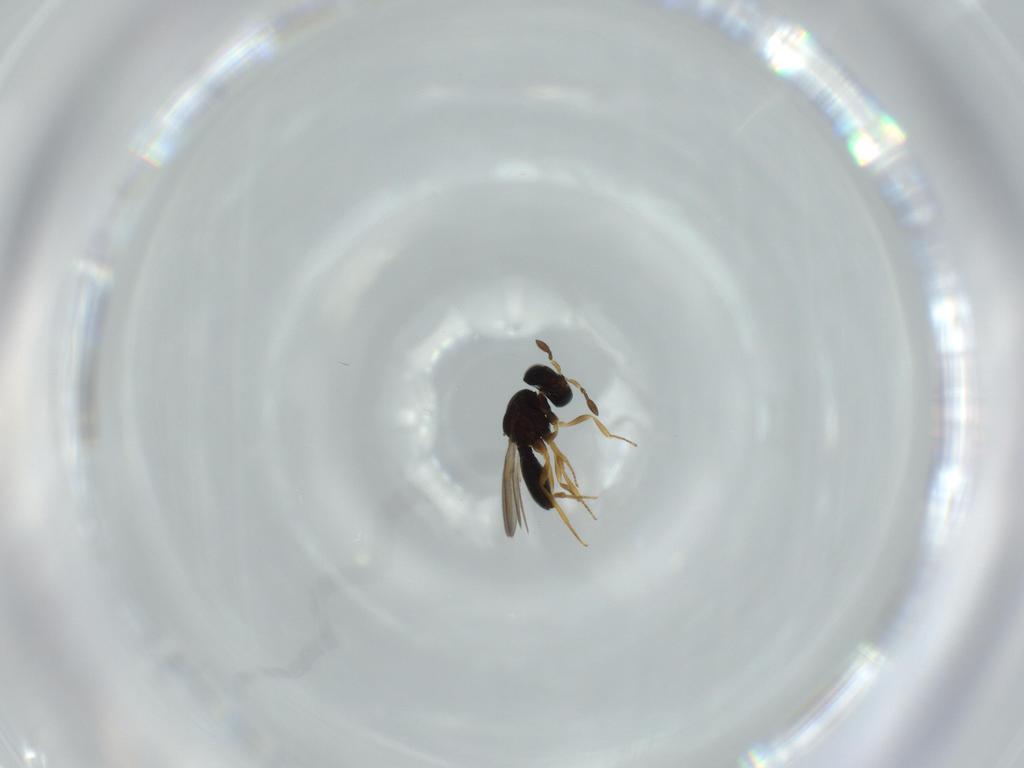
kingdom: Animalia
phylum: Arthropoda
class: Insecta
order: Hymenoptera
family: Scelionidae
